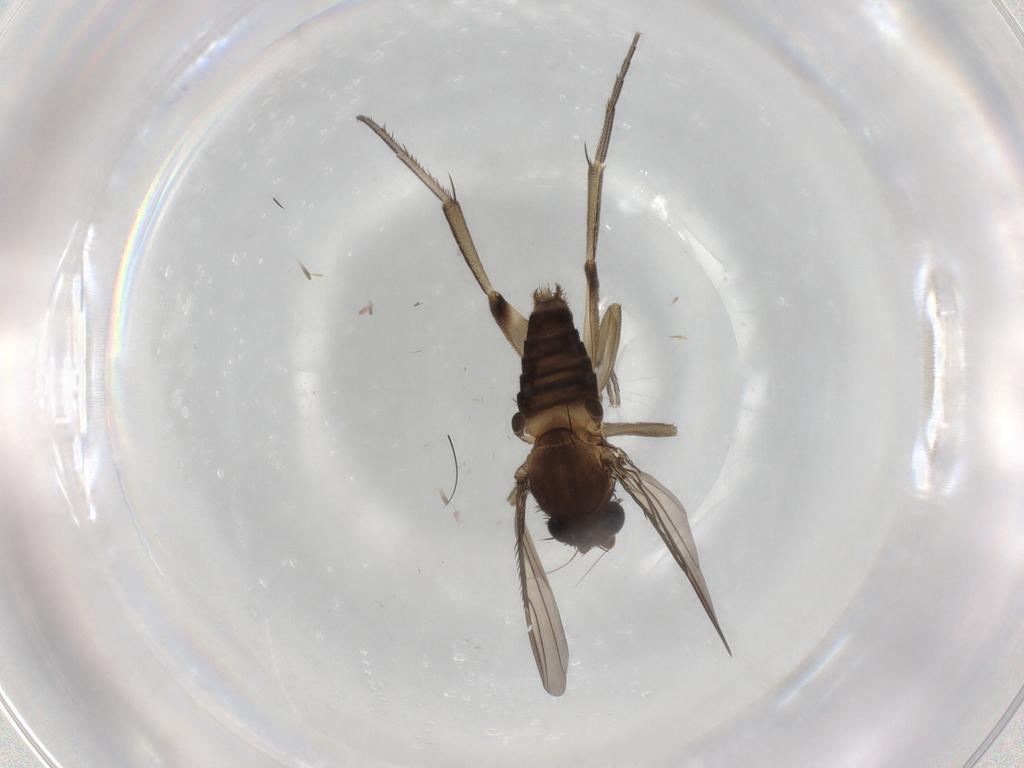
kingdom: Animalia
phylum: Arthropoda
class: Insecta
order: Diptera
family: Phoridae
